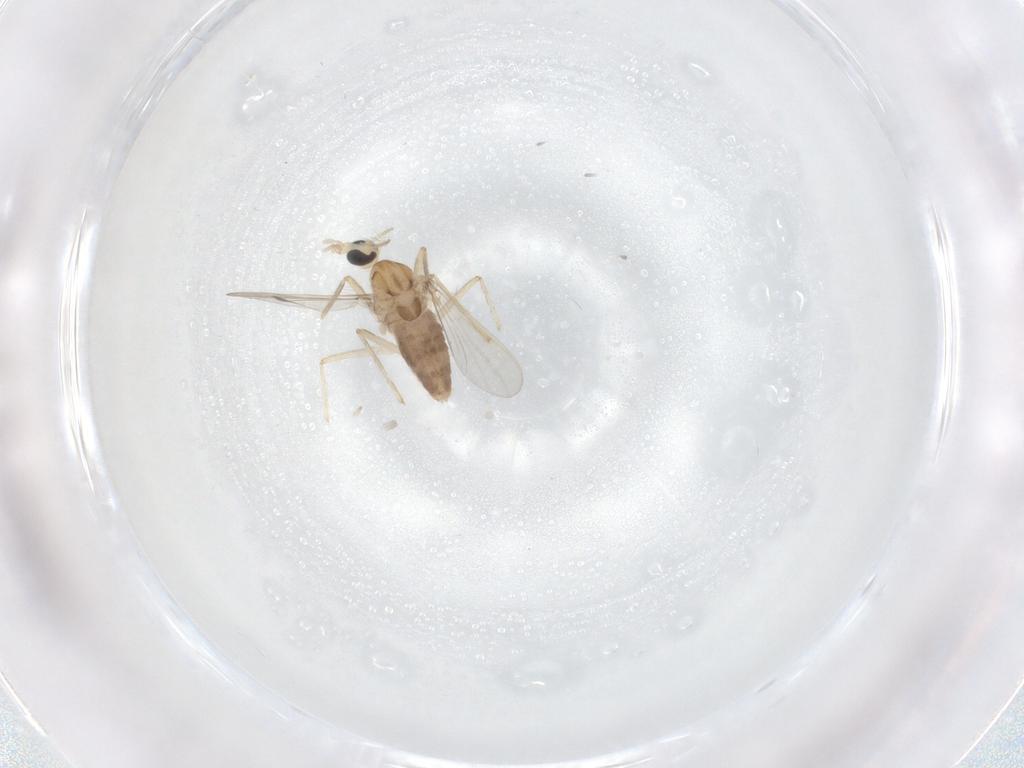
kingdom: Animalia
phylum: Arthropoda
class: Insecta
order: Diptera
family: Chironomidae
